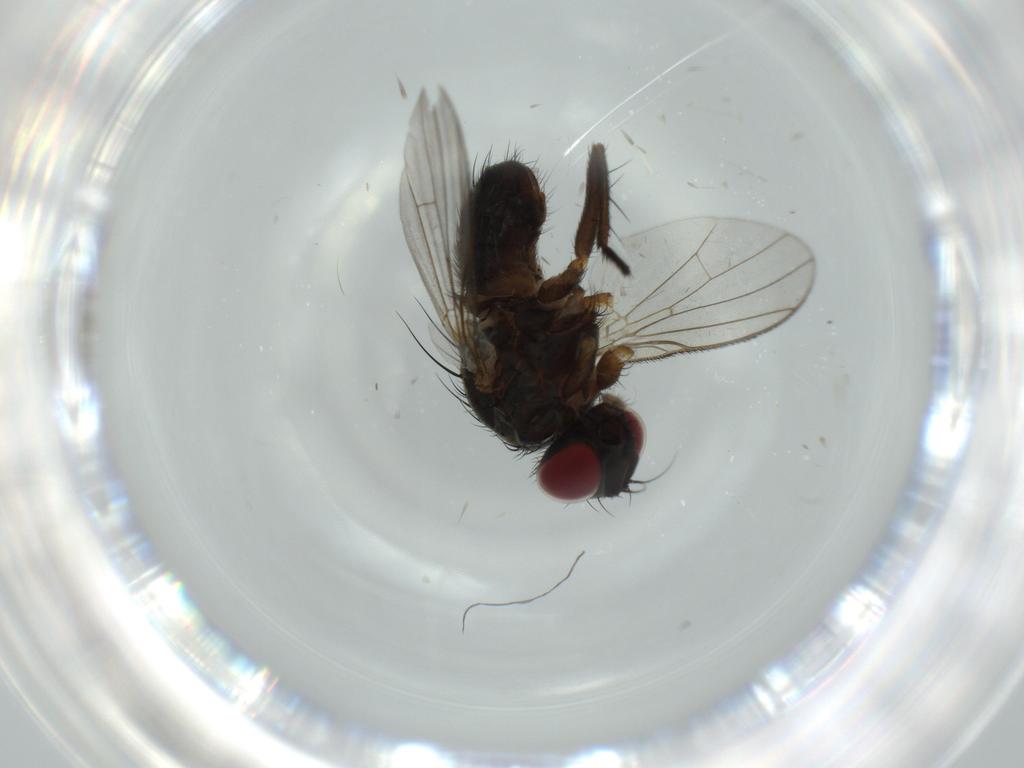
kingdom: Animalia
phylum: Arthropoda
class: Insecta
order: Diptera
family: Muscidae
